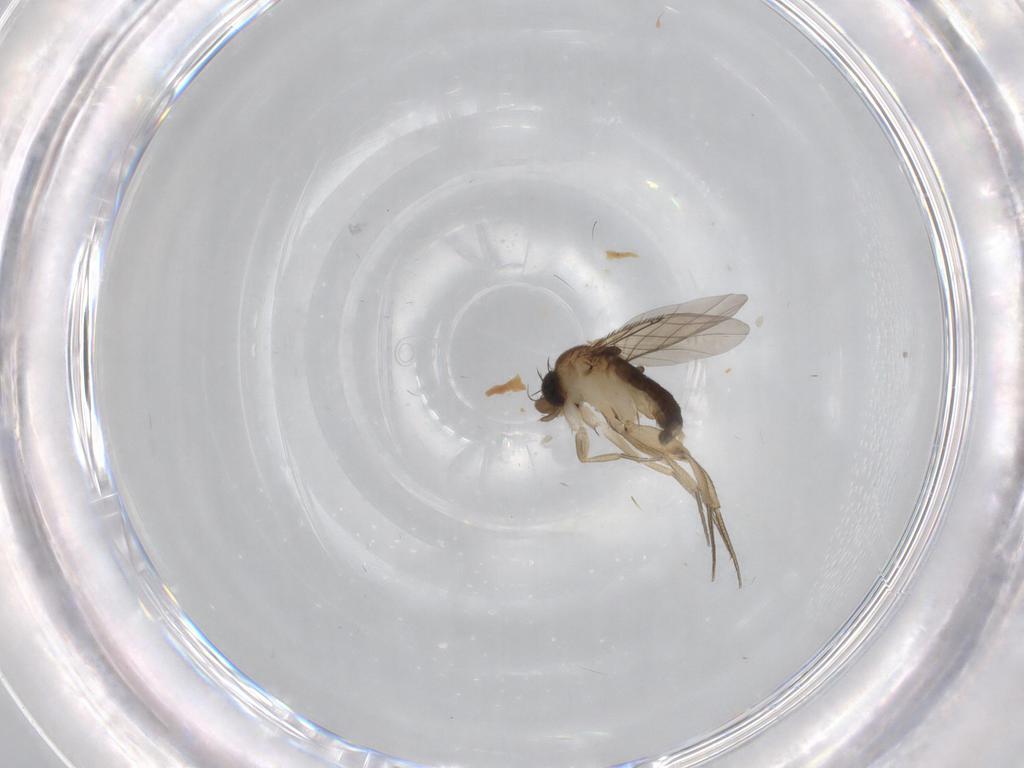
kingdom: Animalia
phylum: Arthropoda
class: Insecta
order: Diptera
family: Phoridae
